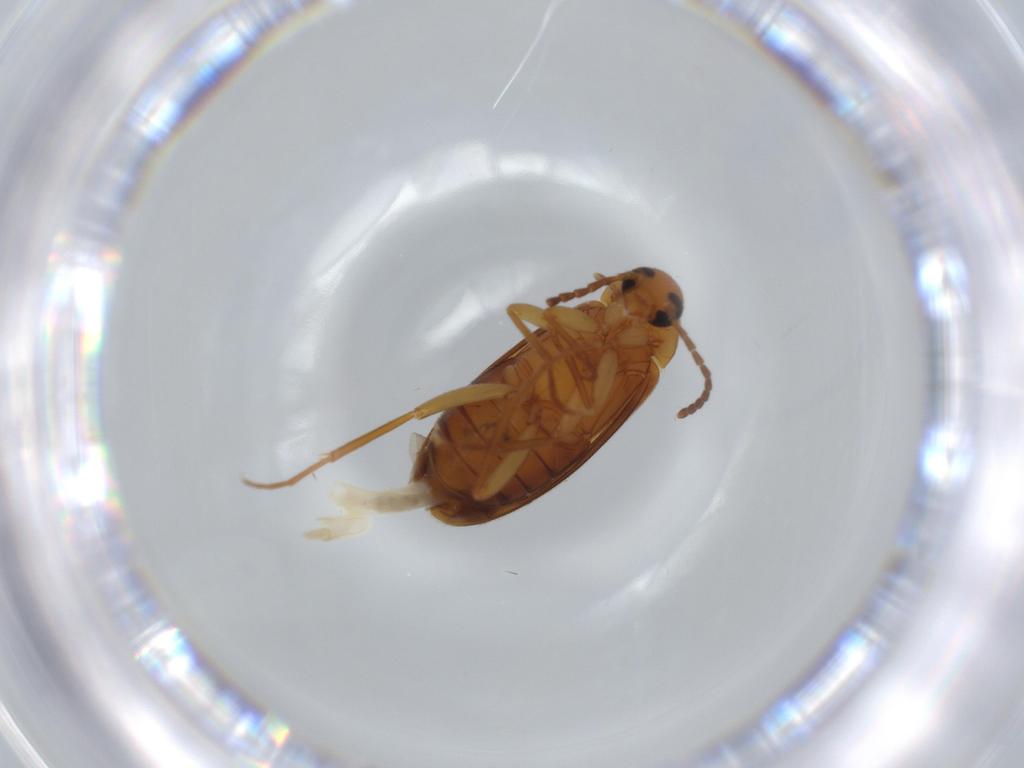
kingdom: Animalia
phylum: Arthropoda
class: Insecta
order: Coleoptera
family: Scraptiidae
